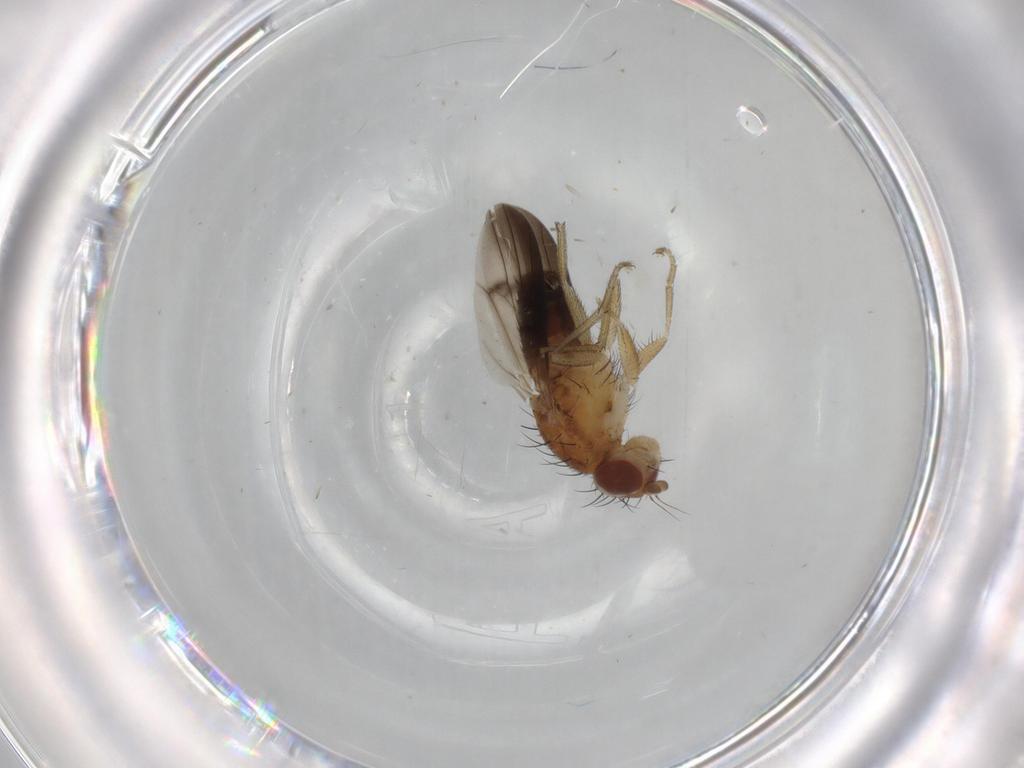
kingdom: Animalia
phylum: Arthropoda
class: Insecta
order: Diptera
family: Heleomyzidae
